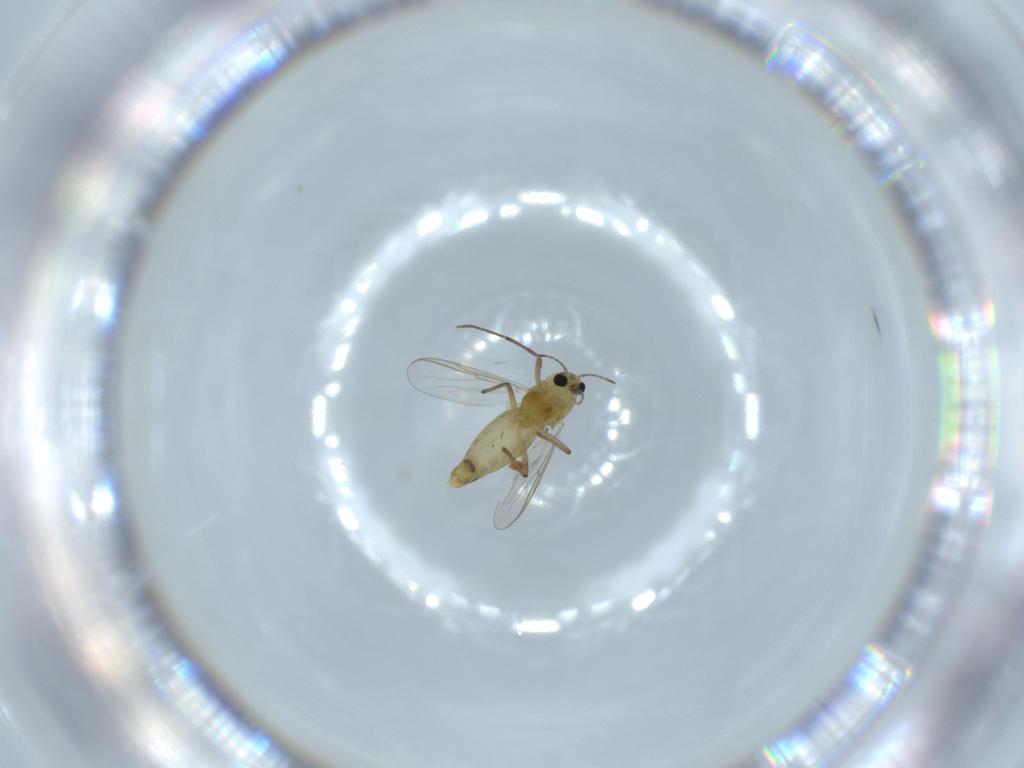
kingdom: Animalia
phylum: Arthropoda
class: Insecta
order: Diptera
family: Chironomidae
